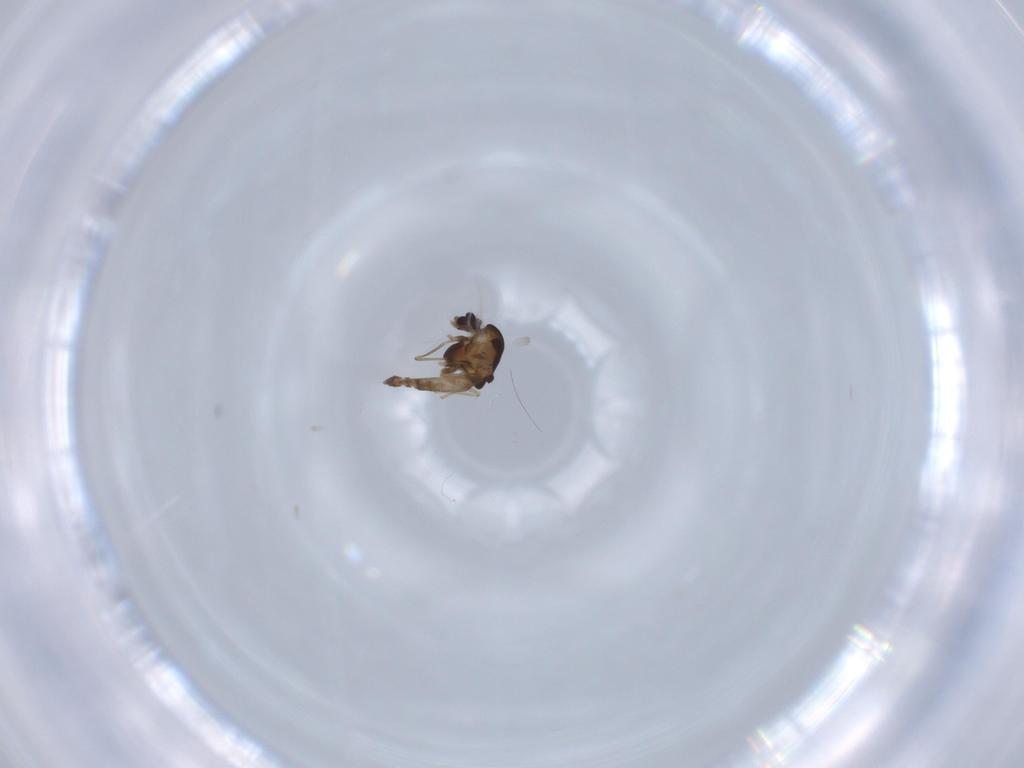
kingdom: Animalia
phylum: Arthropoda
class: Insecta
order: Diptera
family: Chironomidae
